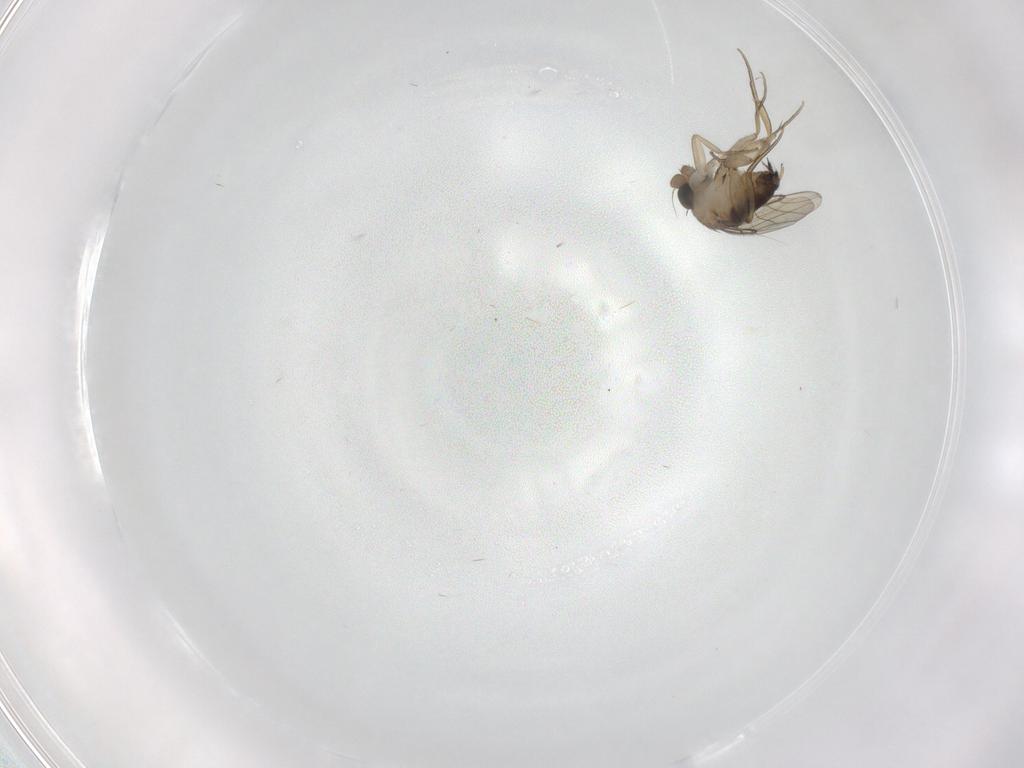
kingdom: Animalia
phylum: Arthropoda
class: Insecta
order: Diptera
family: Phoridae
